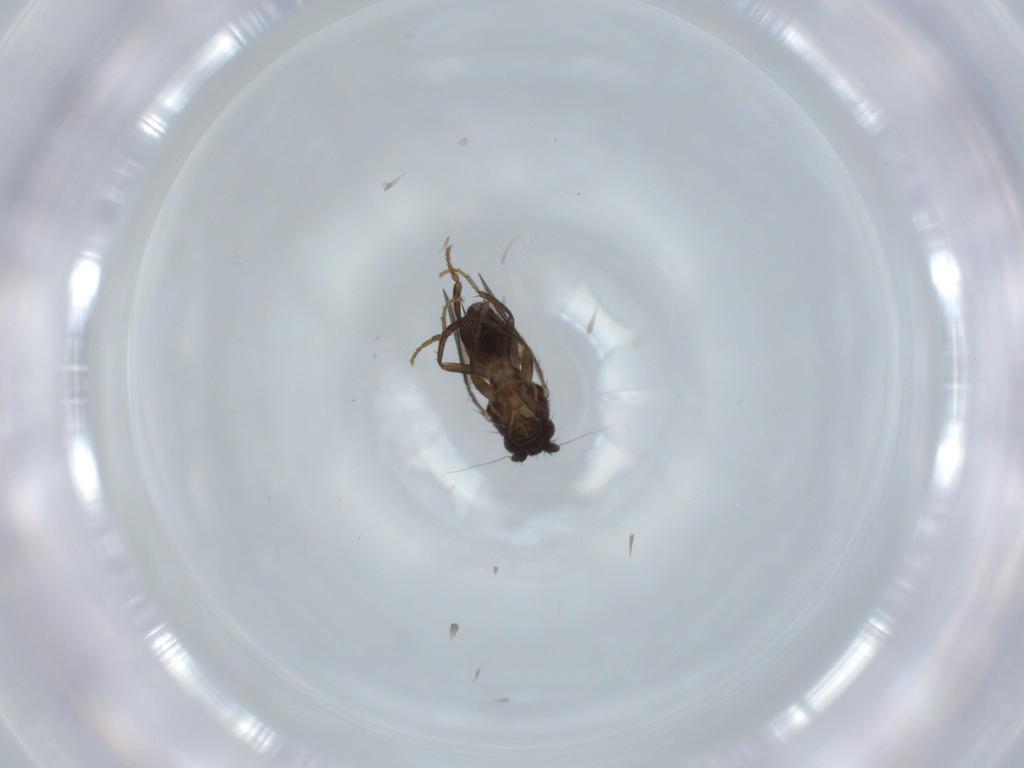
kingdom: Animalia
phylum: Arthropoda
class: Insecta
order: Diptera
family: Sphaeroceridae
